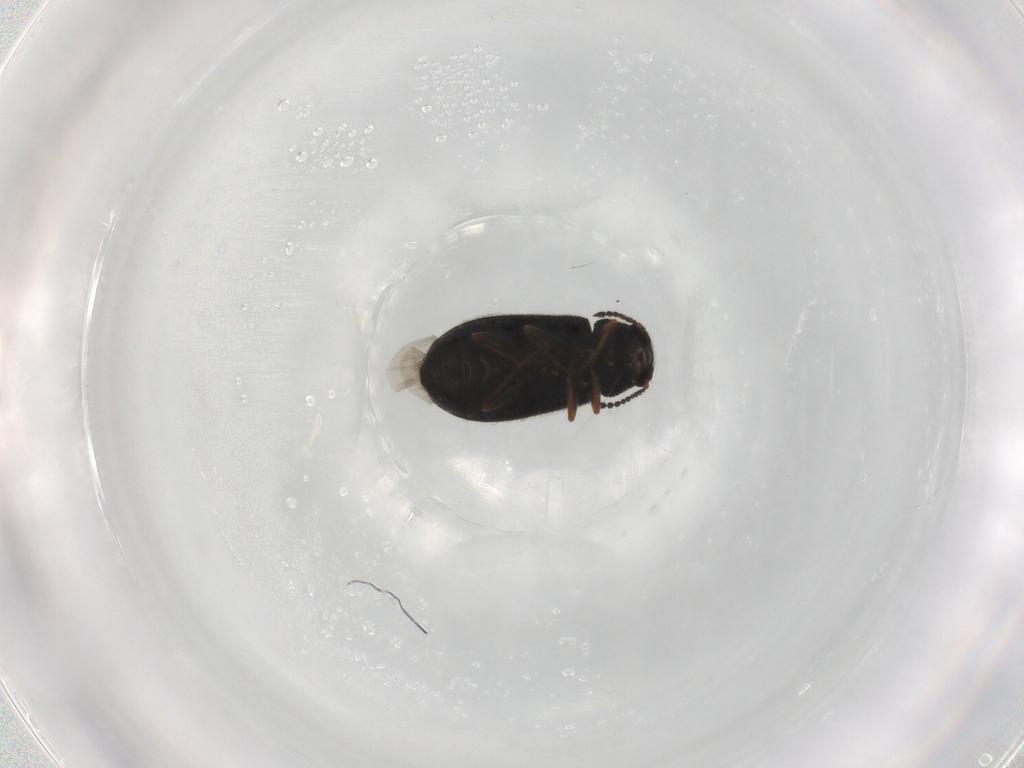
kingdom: Animalia
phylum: Arthropoda
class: Insecta
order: Coleoptera
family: Melyridae
